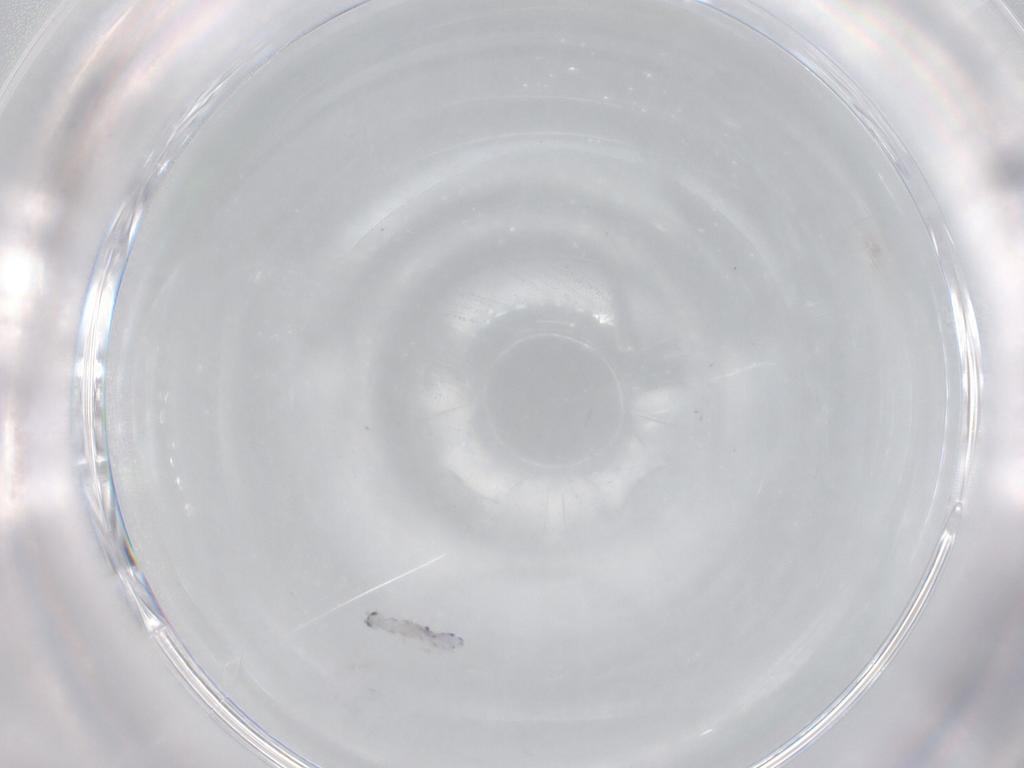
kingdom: Animalia
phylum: Arthropoda
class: Collembola
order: Entomobryomorpha
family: Entomobryidae
